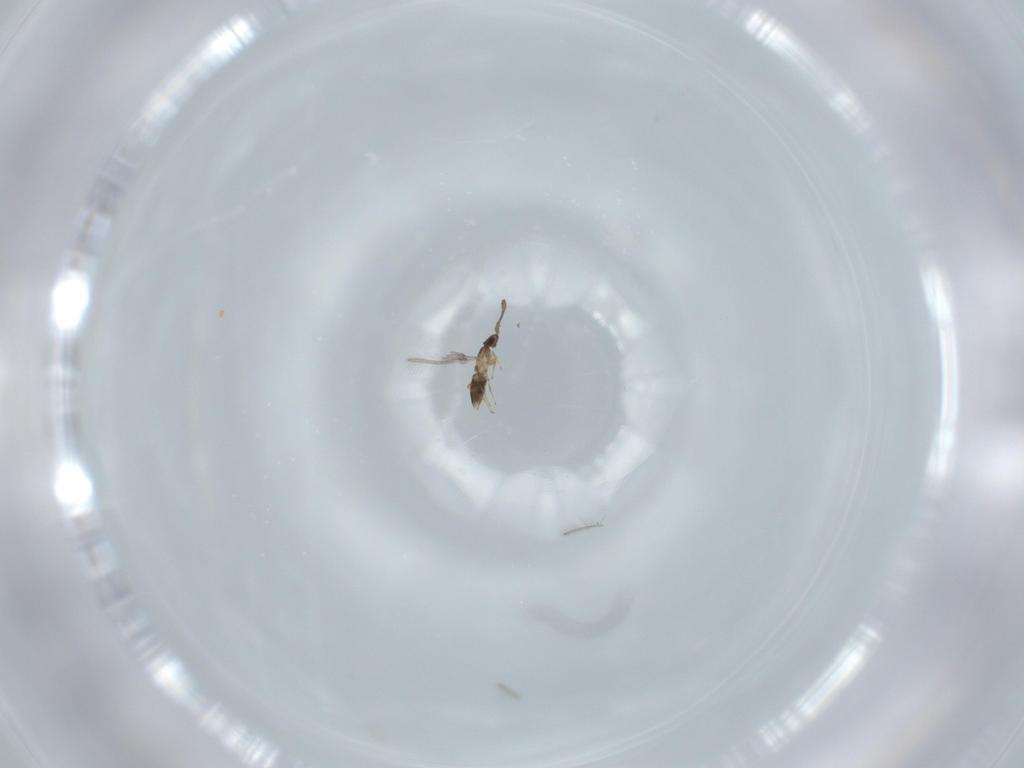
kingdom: Animalia
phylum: Arthropoda
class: Insecta
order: Hymenoptera
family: Mymaridae
